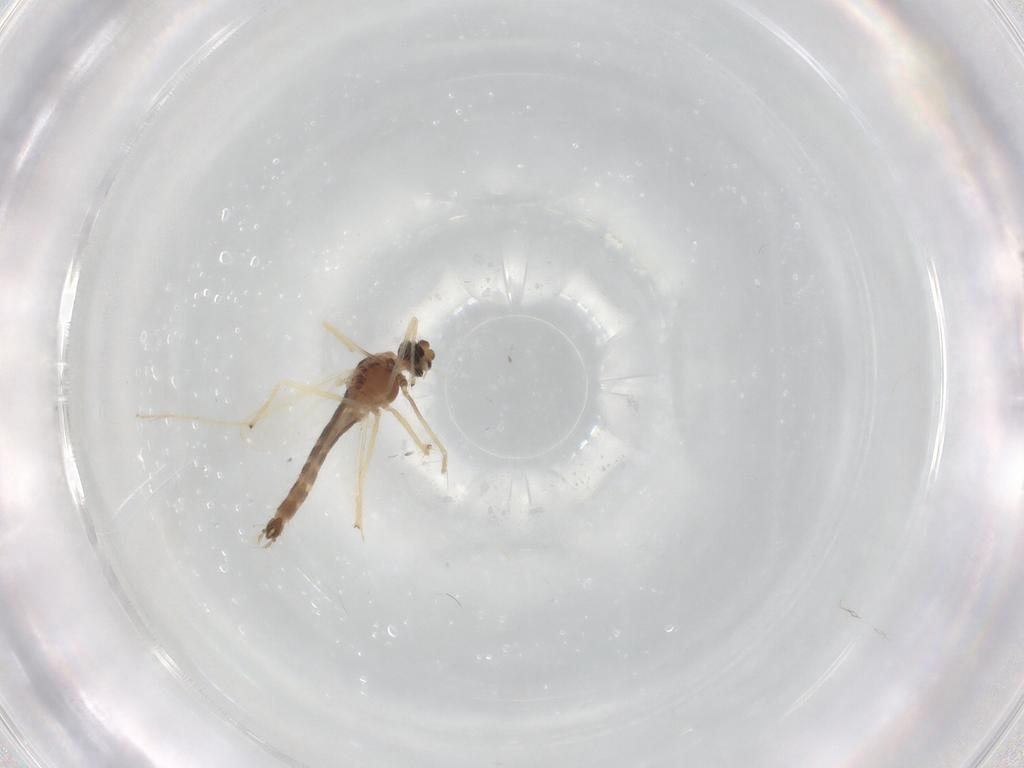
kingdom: Animalia
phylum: Arthropoda
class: Insecta
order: Diptera
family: Chironomidae
